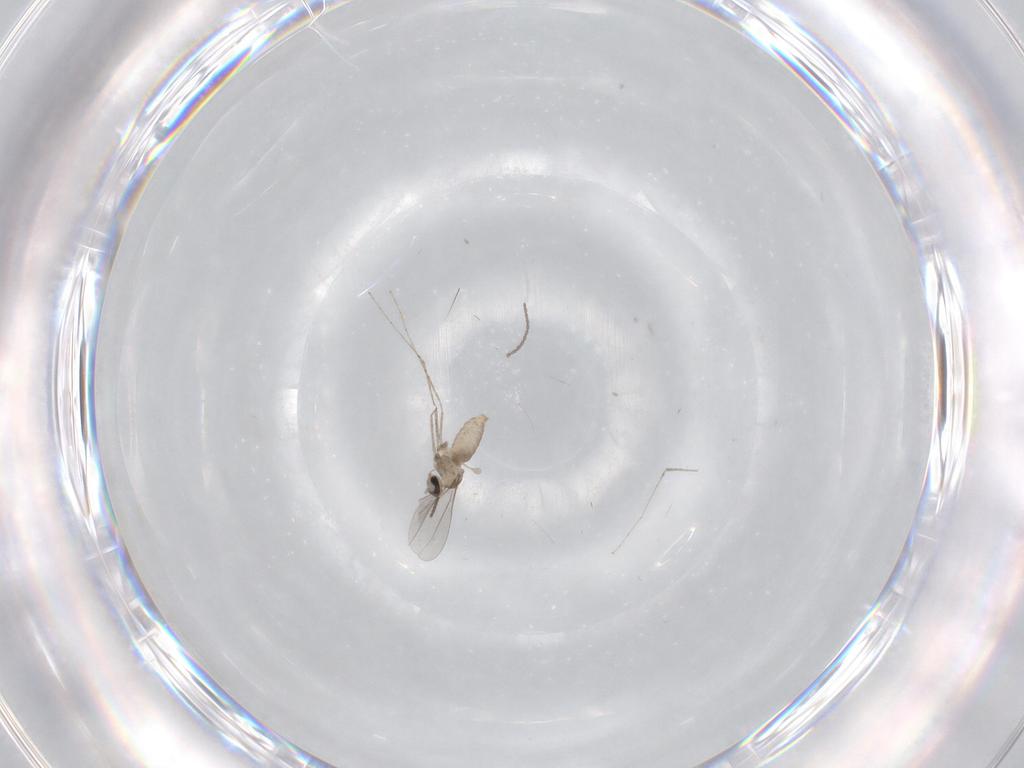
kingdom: Animalia
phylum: Arthropoda
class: Insecta
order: Diptera
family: Cecidomyiidae
